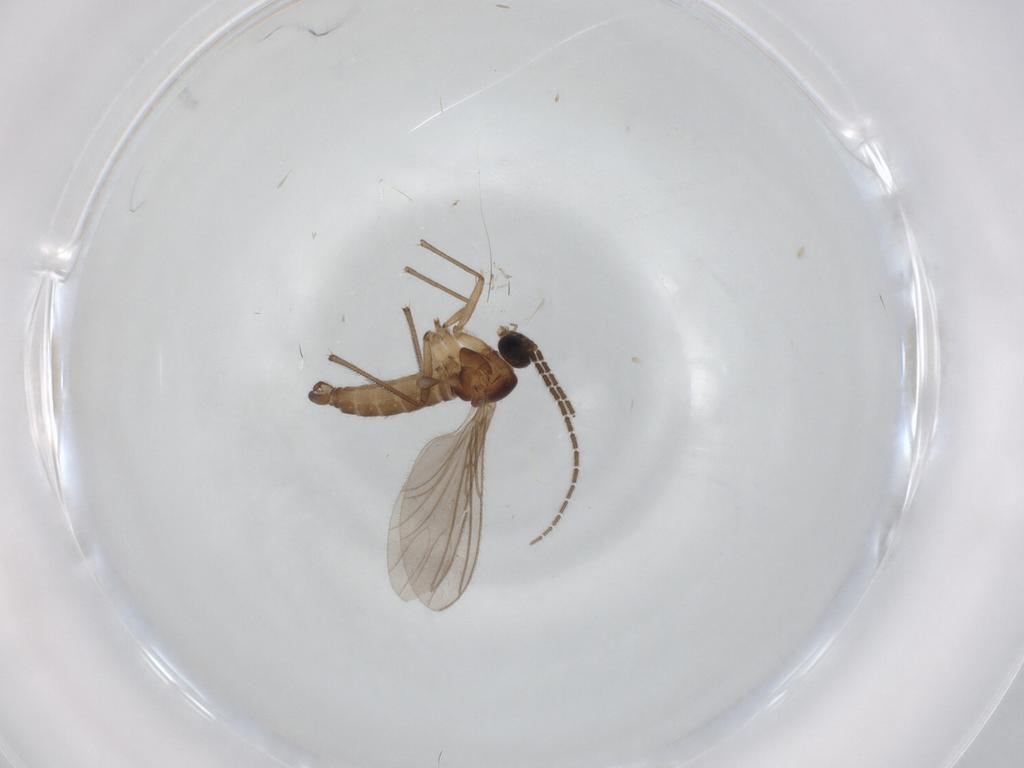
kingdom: Animalia
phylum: Arthropoda
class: Insecta
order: Diptera
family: Sciaridae
